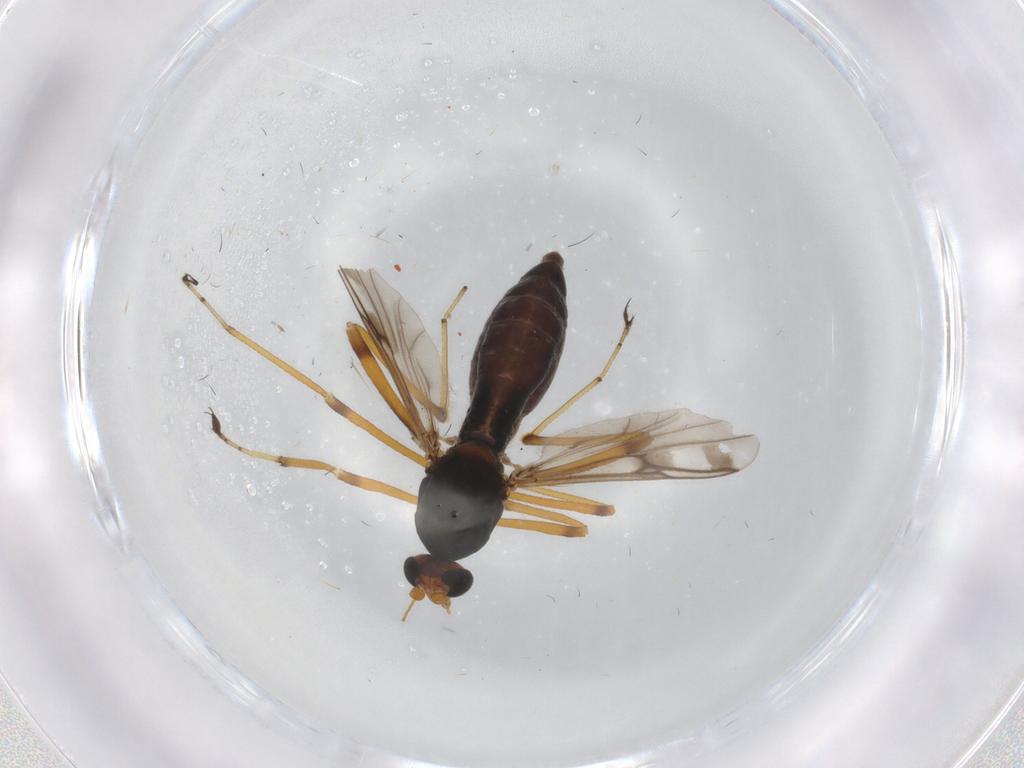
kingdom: Animalia
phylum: Arthropoda
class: Insecta
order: Diptera
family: Ceratopogonidae
